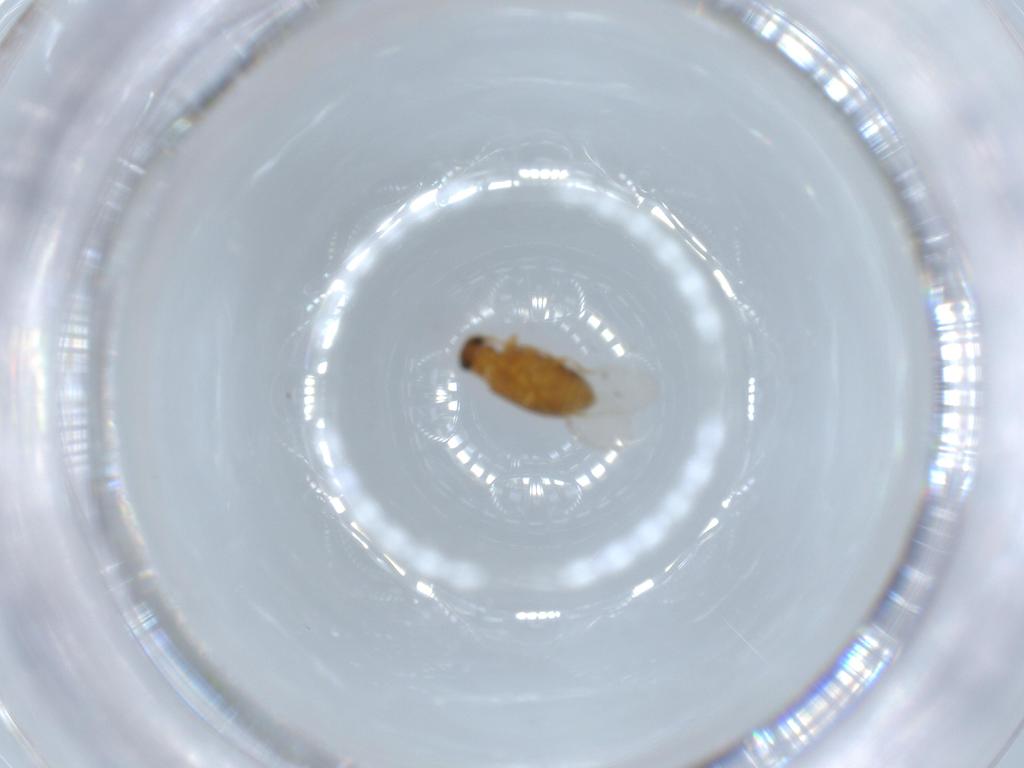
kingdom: Animalia
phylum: Arthropoda
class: Insecta
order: Coleoptera
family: Aderidae
